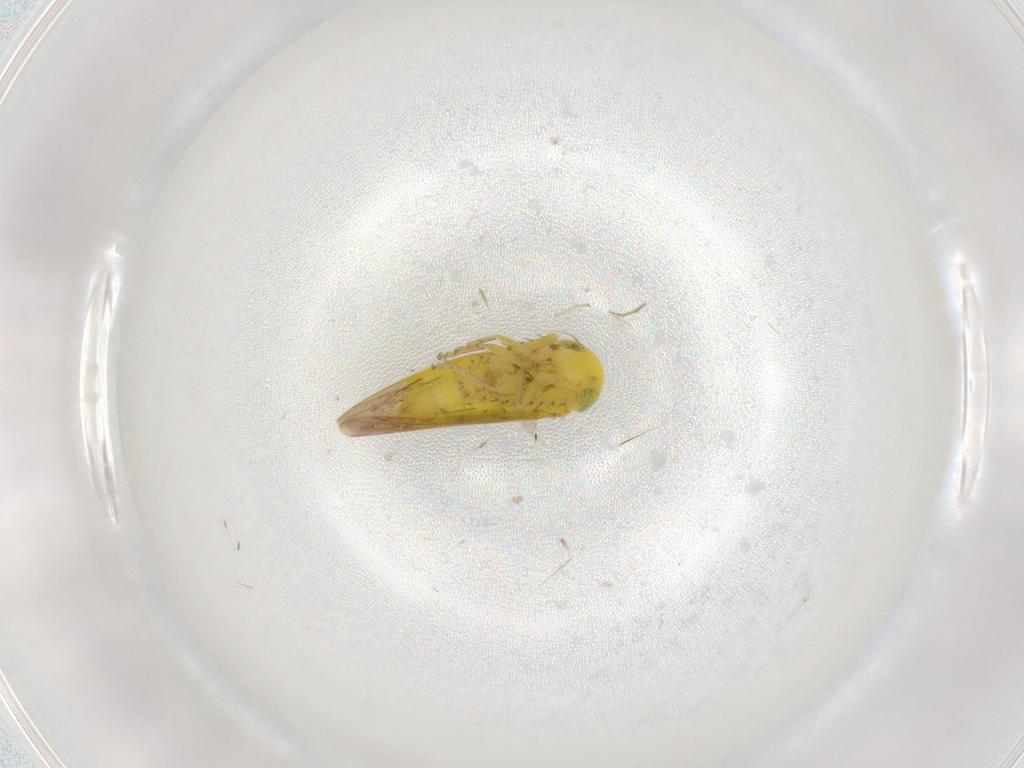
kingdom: Animalia
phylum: Arthropoda
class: Insecta
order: Hemiptera
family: Cicadellidae
